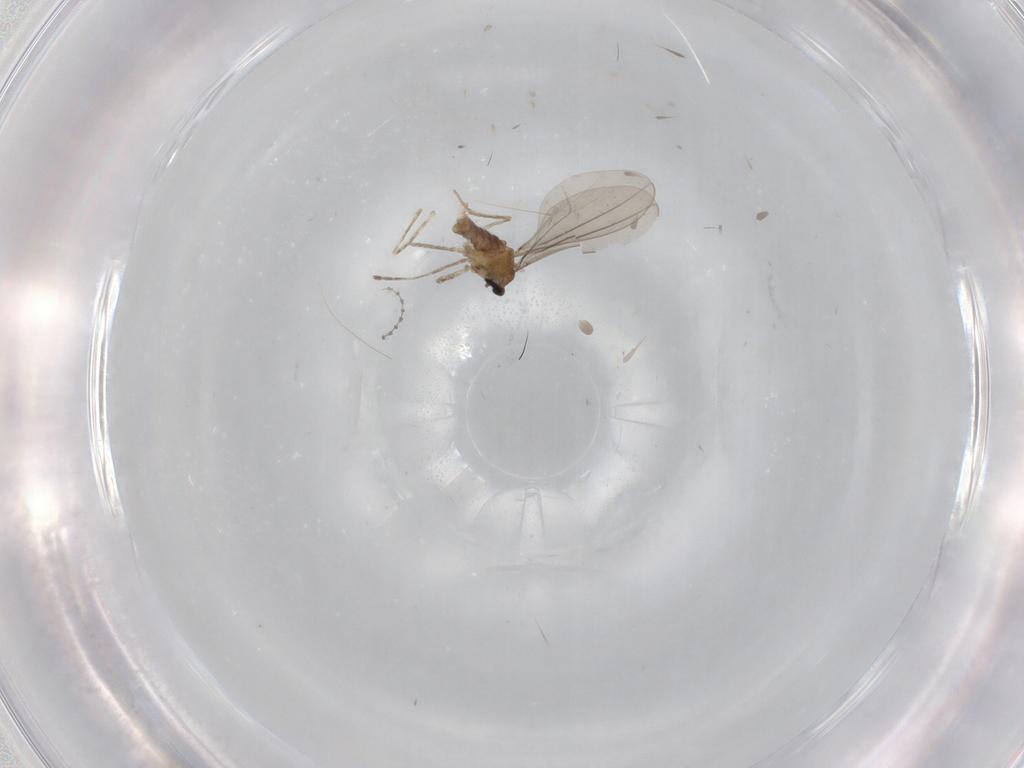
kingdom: Animalia
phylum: Arthropoda
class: Insecta
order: Diptera
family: Cecidomyiidae
